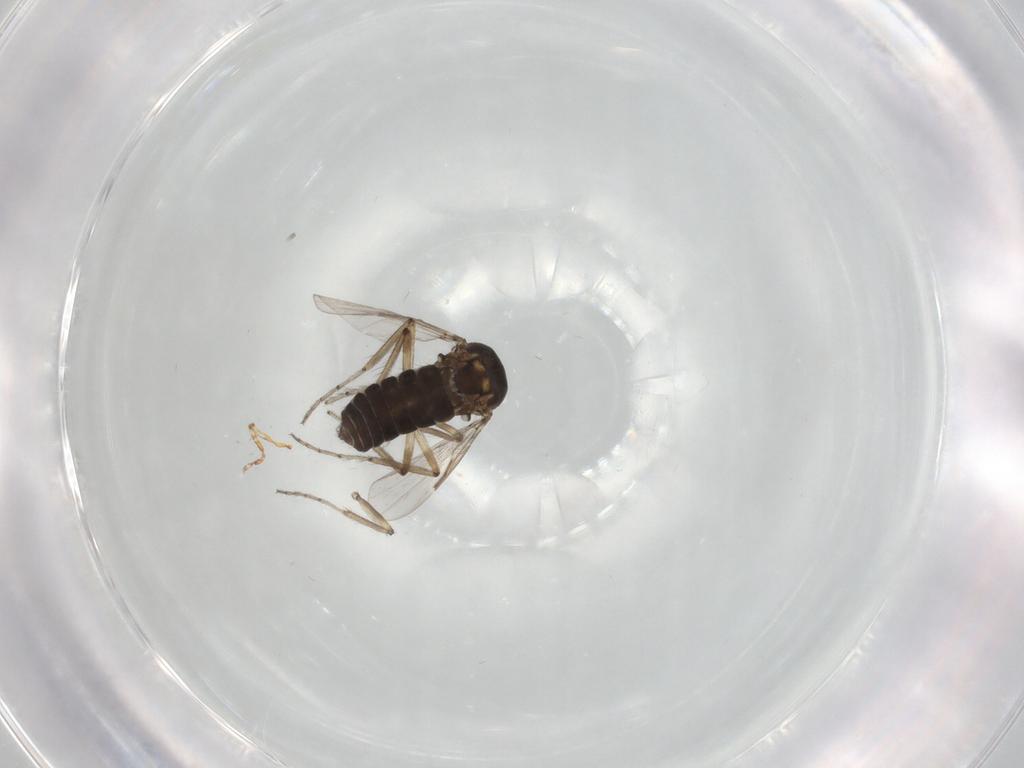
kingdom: Animalia
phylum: Arthropoda
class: Insecta
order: Diptera
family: Ceratopogonidae
